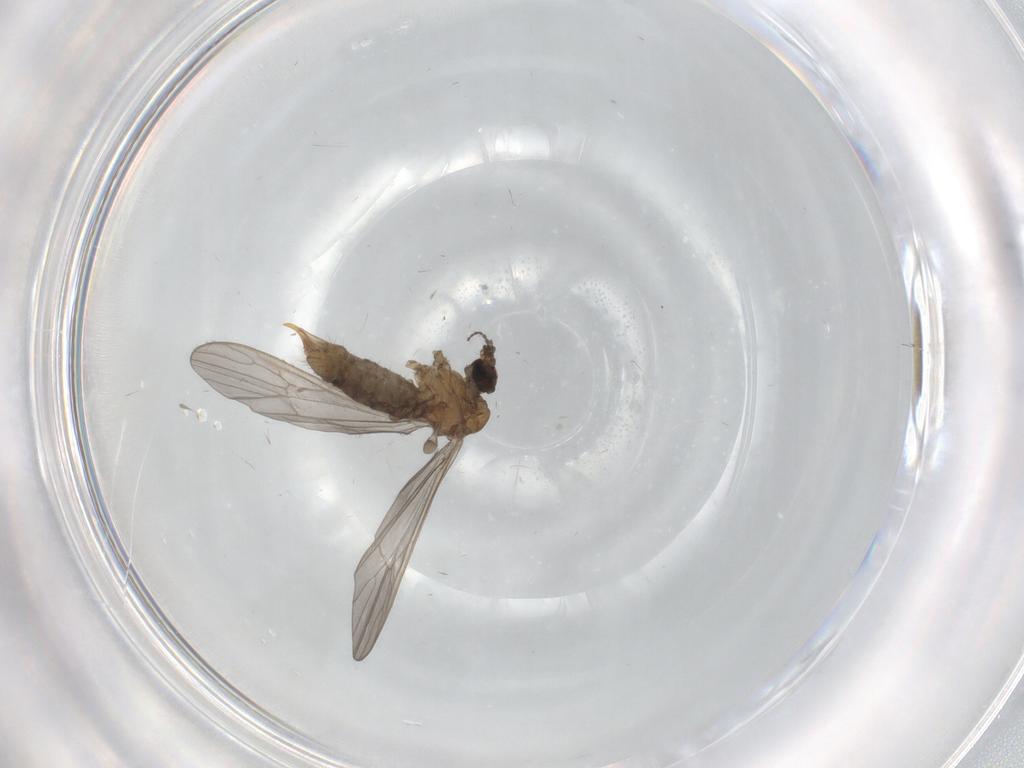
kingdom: Animalia
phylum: Arthropoda
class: Insecta
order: Diptera
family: Limoniidae
